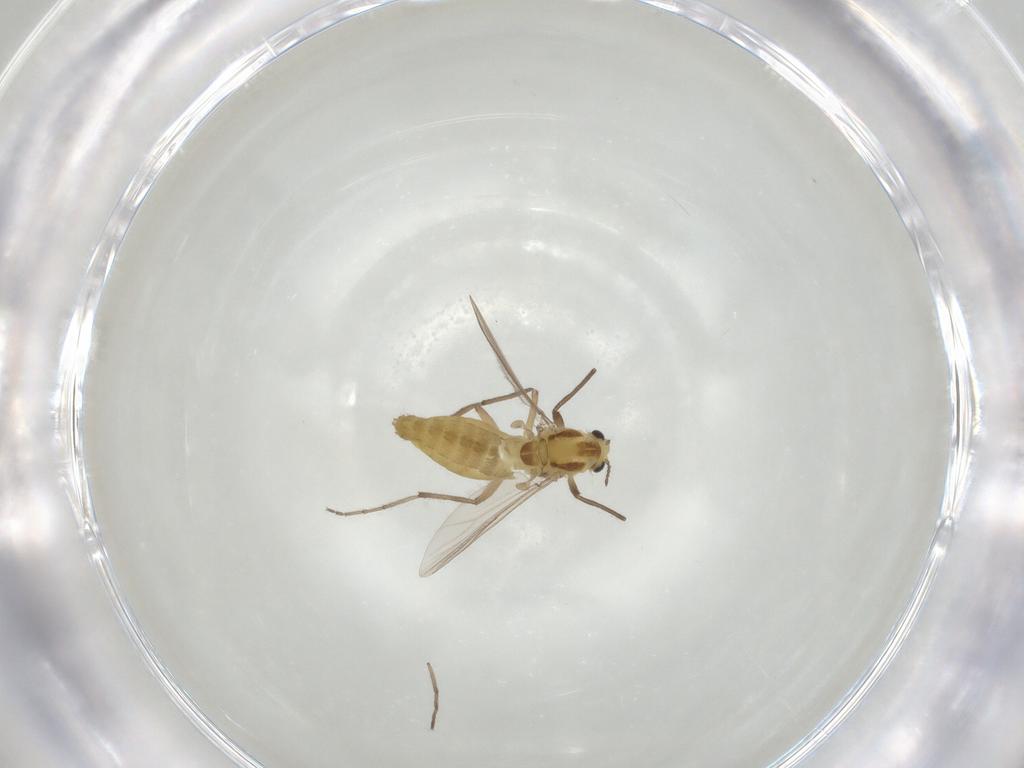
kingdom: Animalia
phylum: Arthropoda
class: Insecta
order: Diptera
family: Chironomidae
